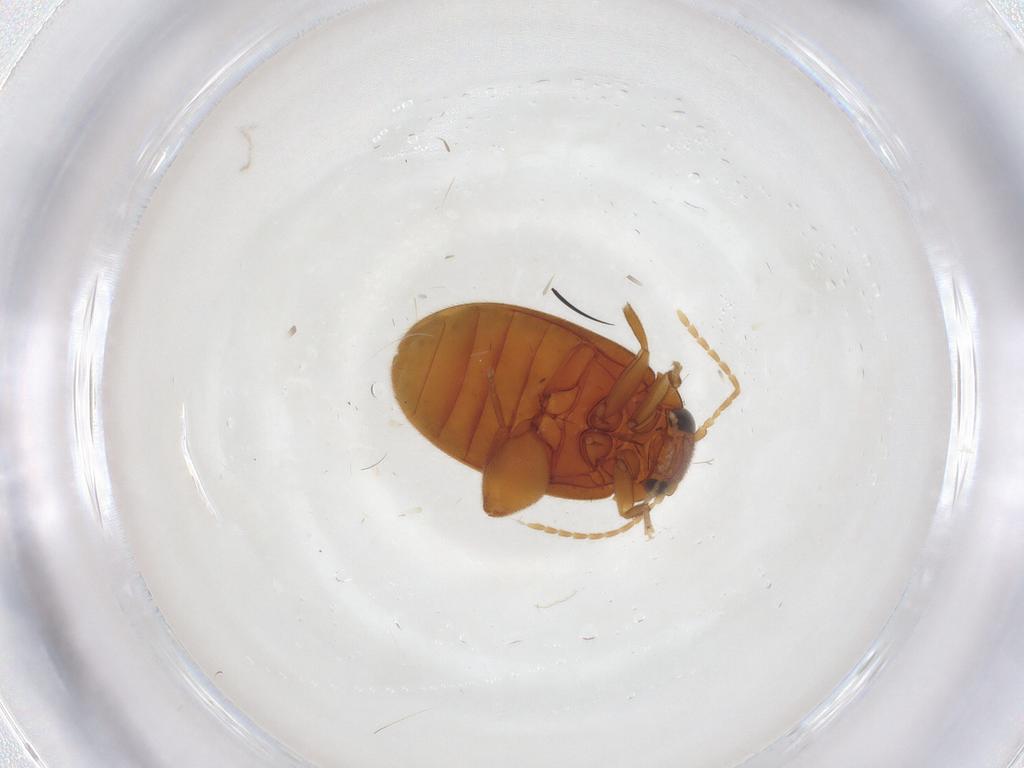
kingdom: Animalia
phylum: Arthropoda
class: Insecta
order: Coleoptera
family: Scirtidae
